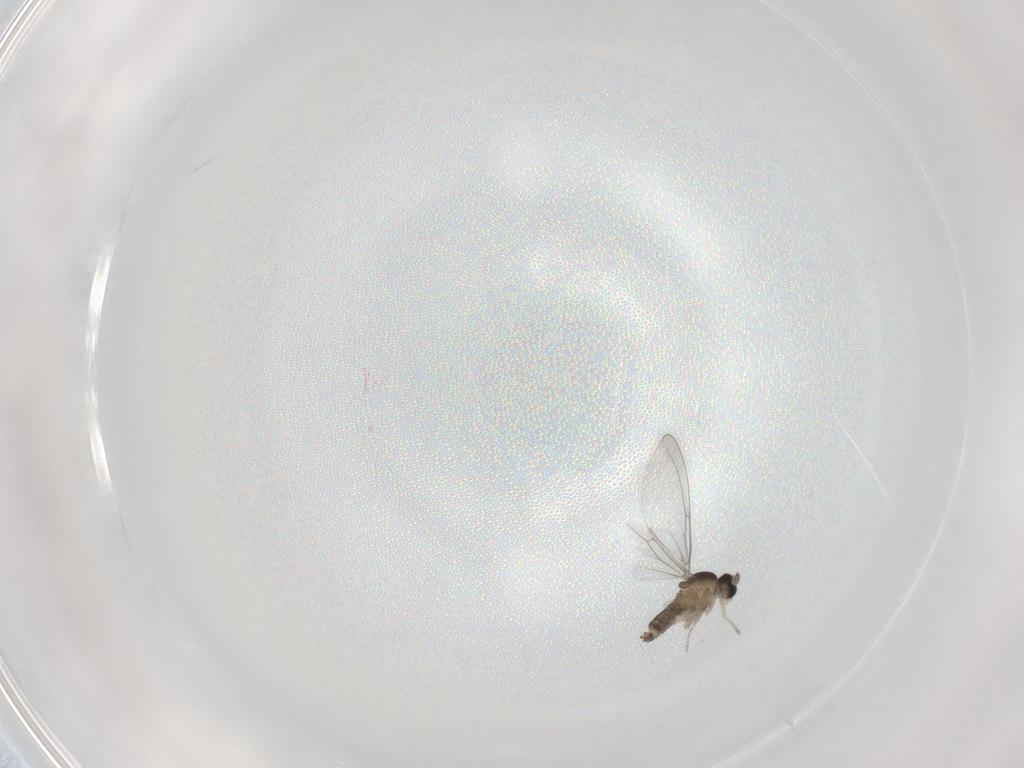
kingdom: Animalia
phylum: Arthropoda
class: Insecta
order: Diptera
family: Cecidomyiidae
